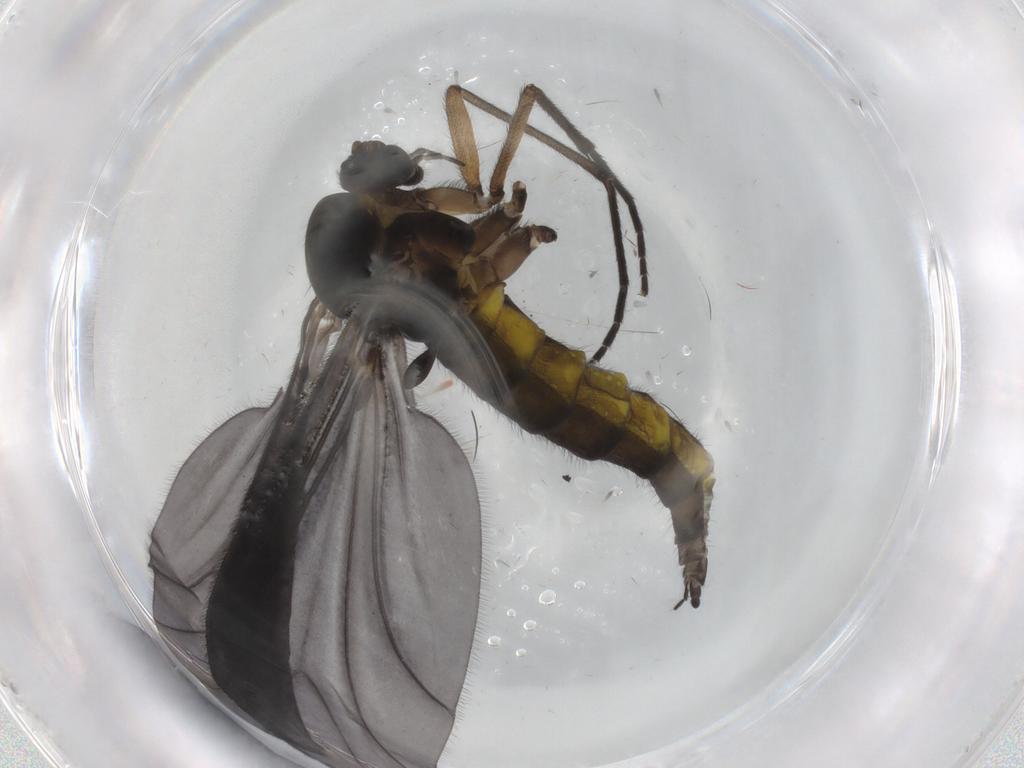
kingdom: Animalia
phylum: Arthropoda
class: Insecta
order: Diptera
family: Sciaridae
